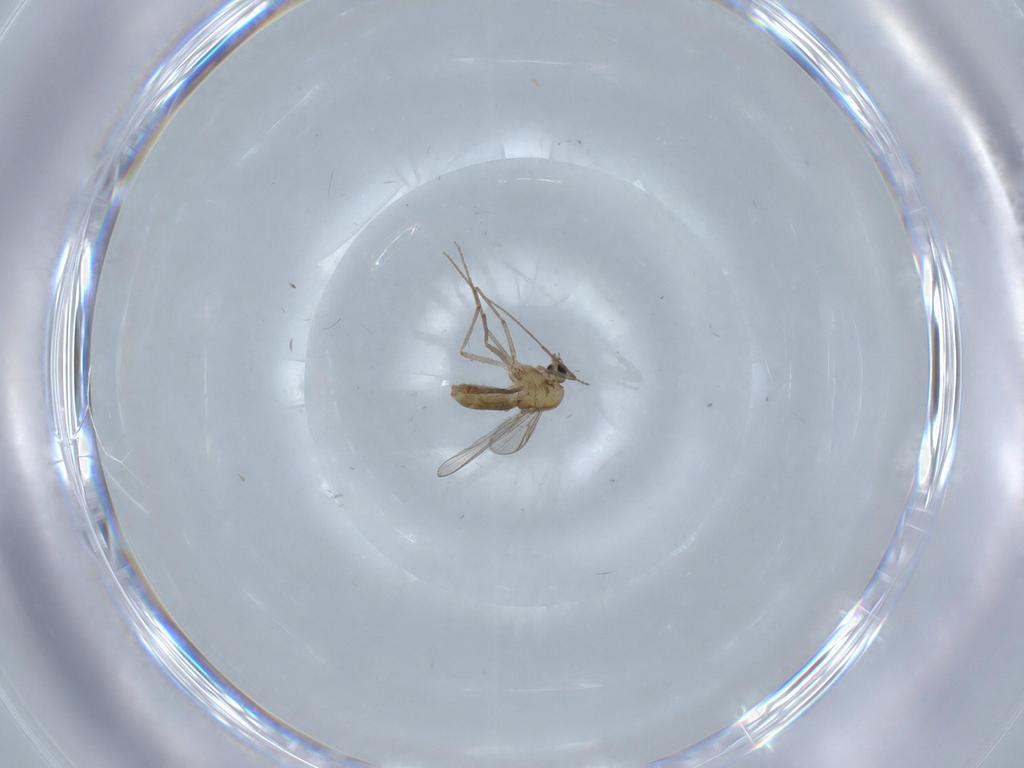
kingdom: Animalia
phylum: Arthropoda
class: Insecta
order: Diptera
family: Chironomidae
